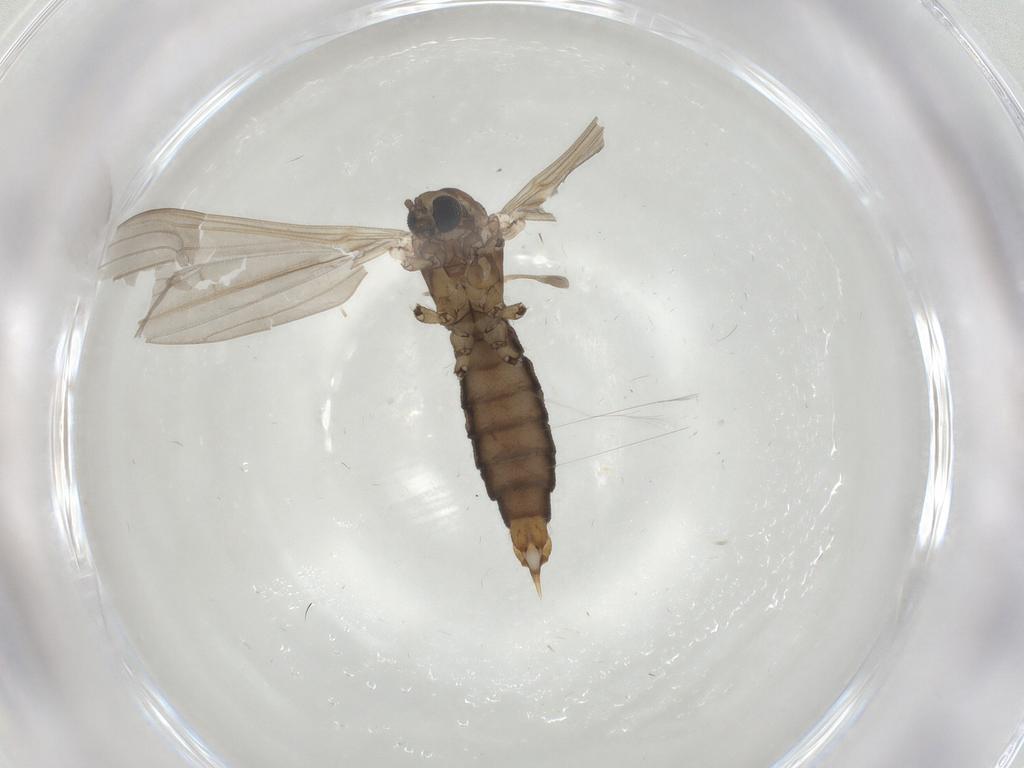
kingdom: Animalia
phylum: Arthropoda
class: Insecta
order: Diptera
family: Limoniidae
